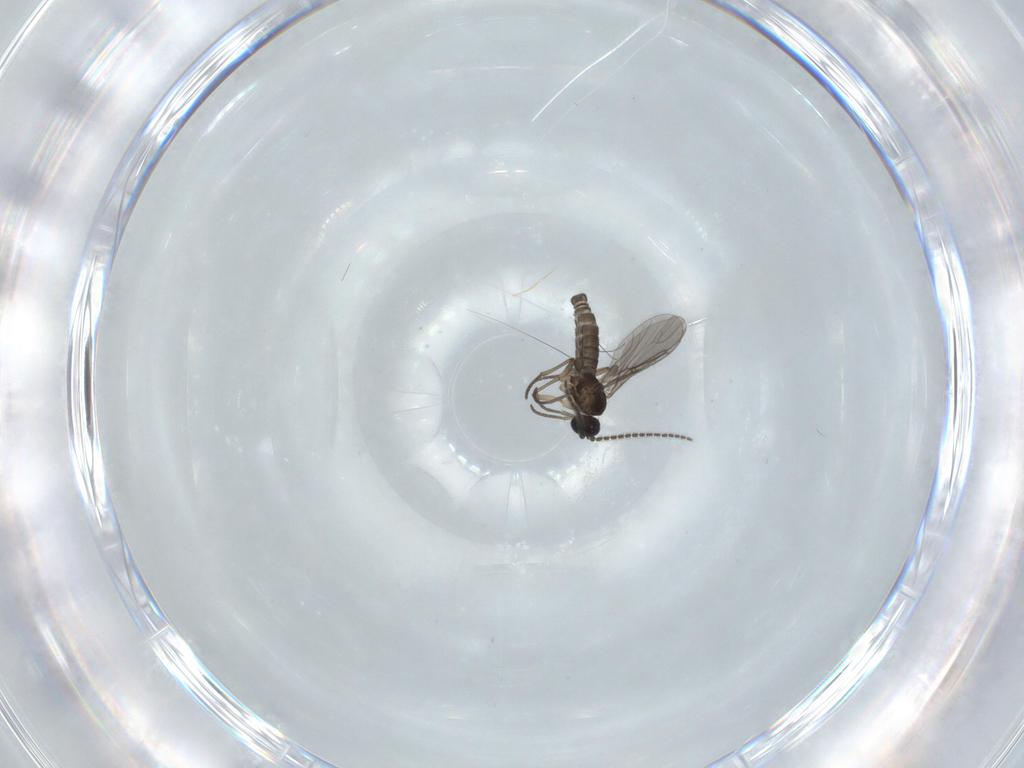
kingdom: Animalia
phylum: Arthropoda
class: Insecta
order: Diptera
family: Sciaridae
